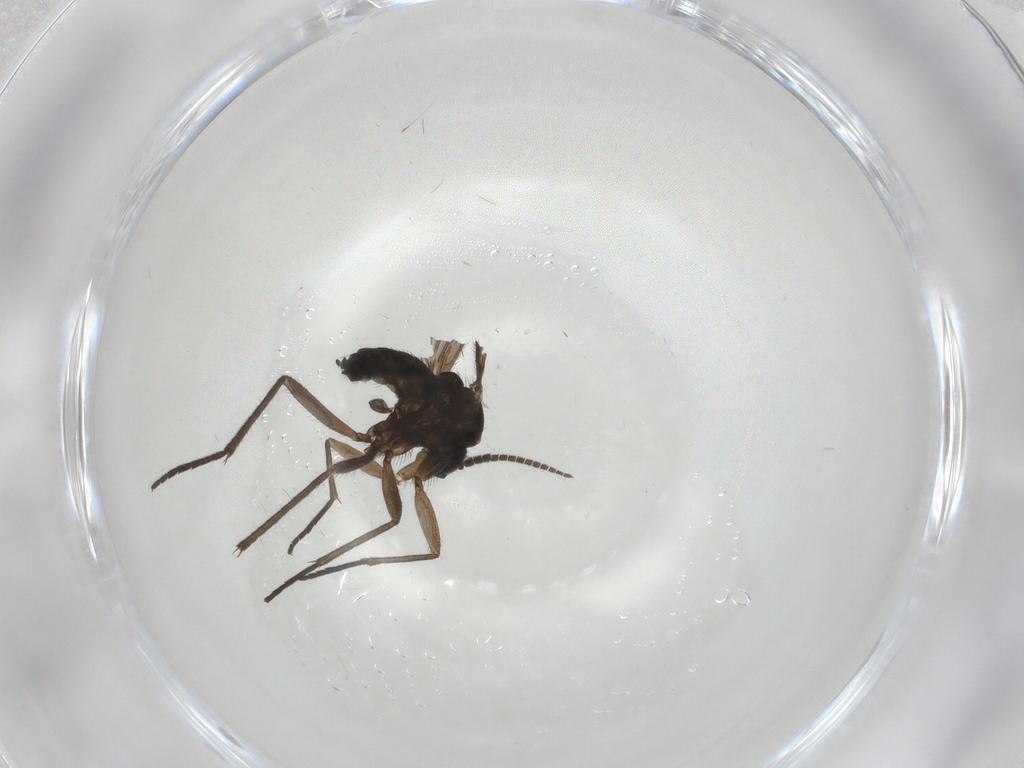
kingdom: Animalia
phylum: Arthropoda
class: Insecta
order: Diptera
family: Sciaridae
